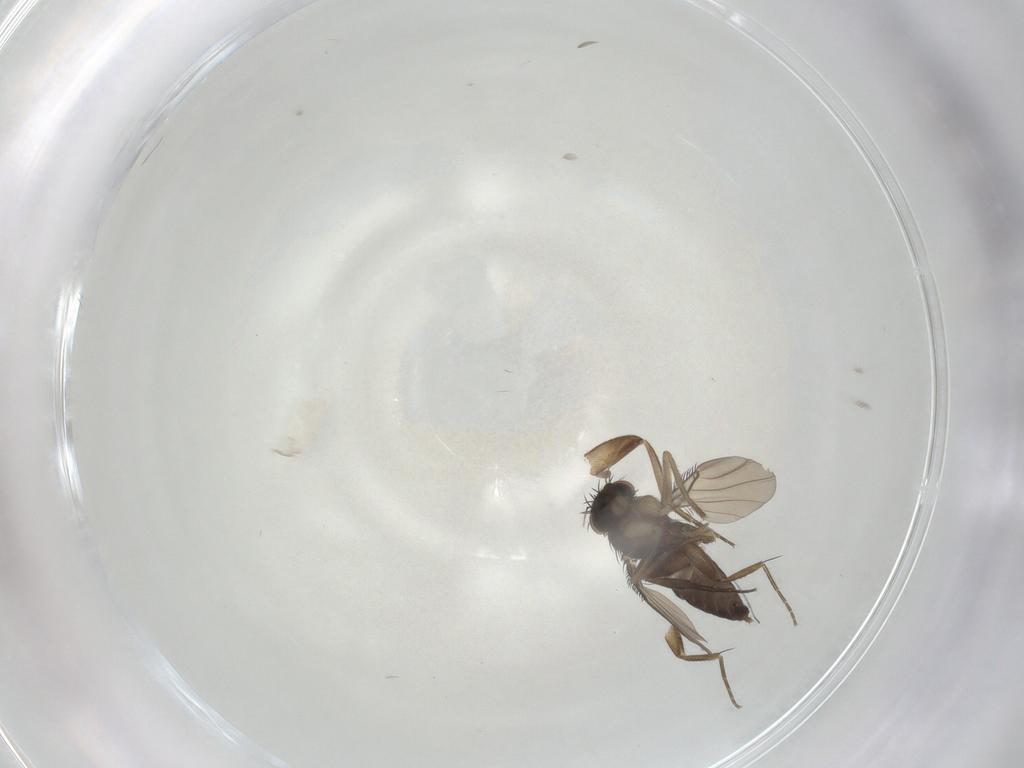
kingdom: Animalia
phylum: Arthropoda
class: Insecta
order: Diptera
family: Phoridae
